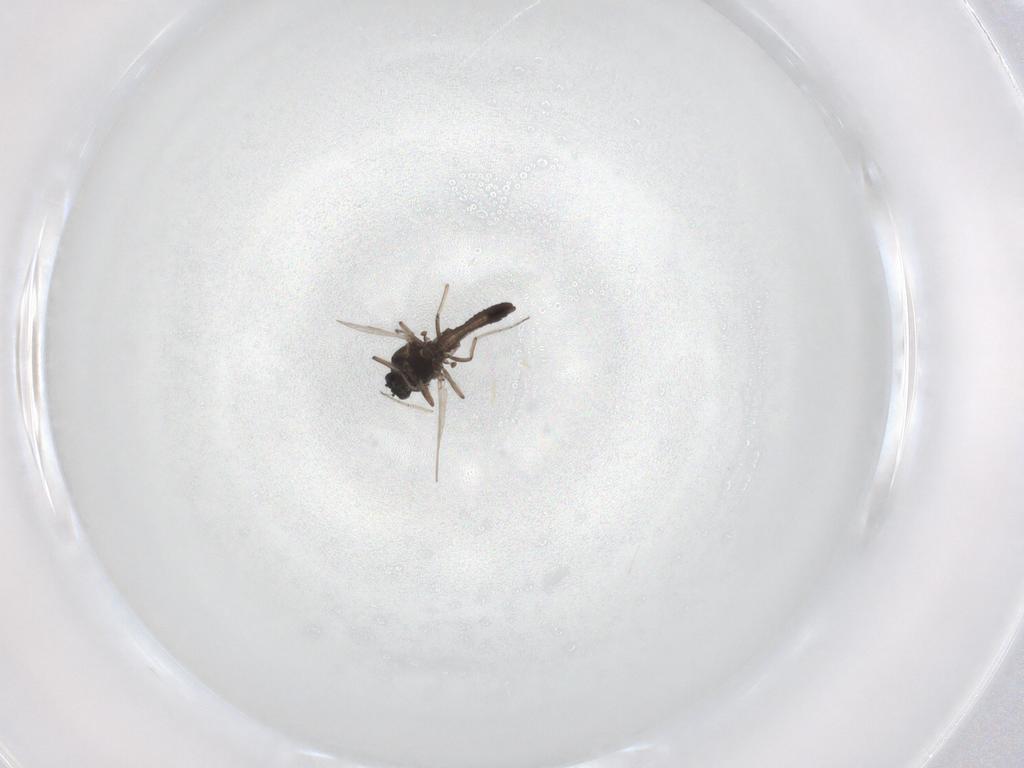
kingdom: Animalia
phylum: Arthropoda
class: Insecta
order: Diptera
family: Ceratopogonidae
